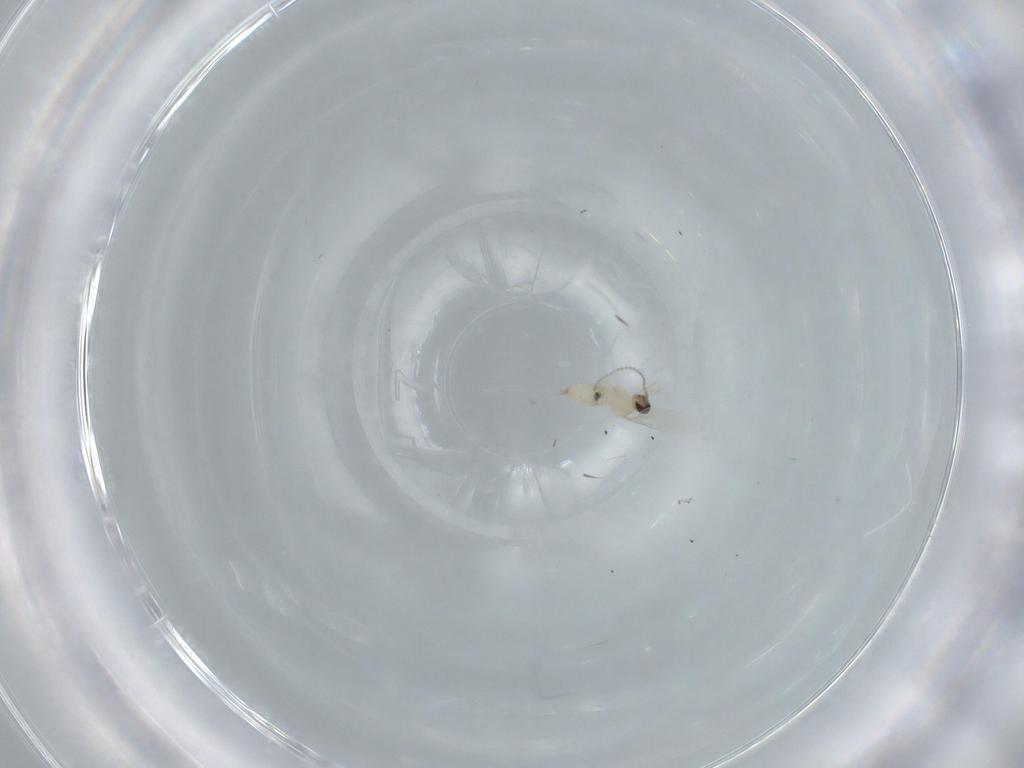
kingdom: Animalia
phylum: Arthropoda
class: Insecta
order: Diptera
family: Cecidomyiidae
